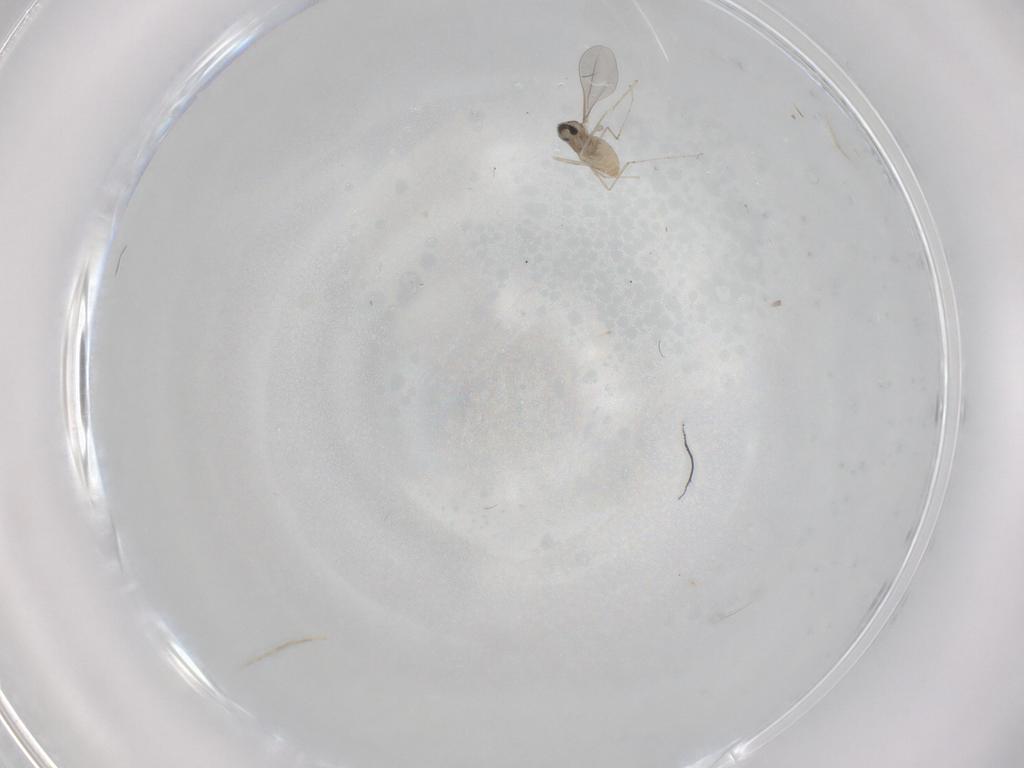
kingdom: Animalia
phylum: Arthropoda
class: Insecta
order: Diptera
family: Cecidomyiidae
